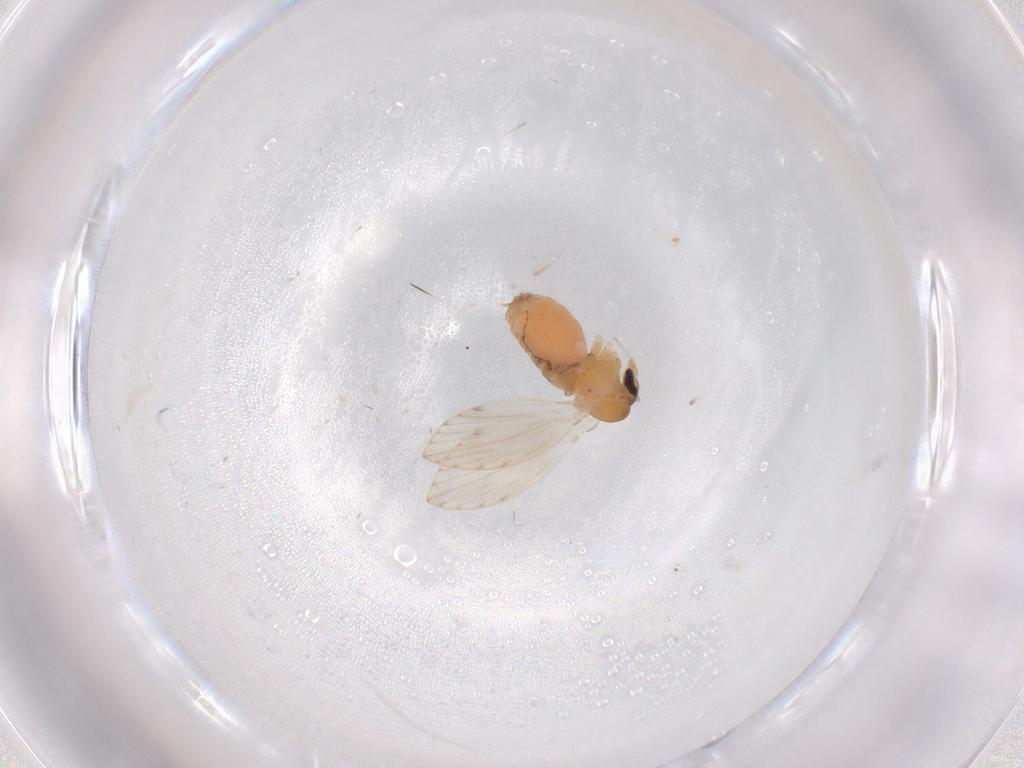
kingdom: Animalia
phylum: Arthropoda
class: Insecta
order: Diptera
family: Psychodidae
